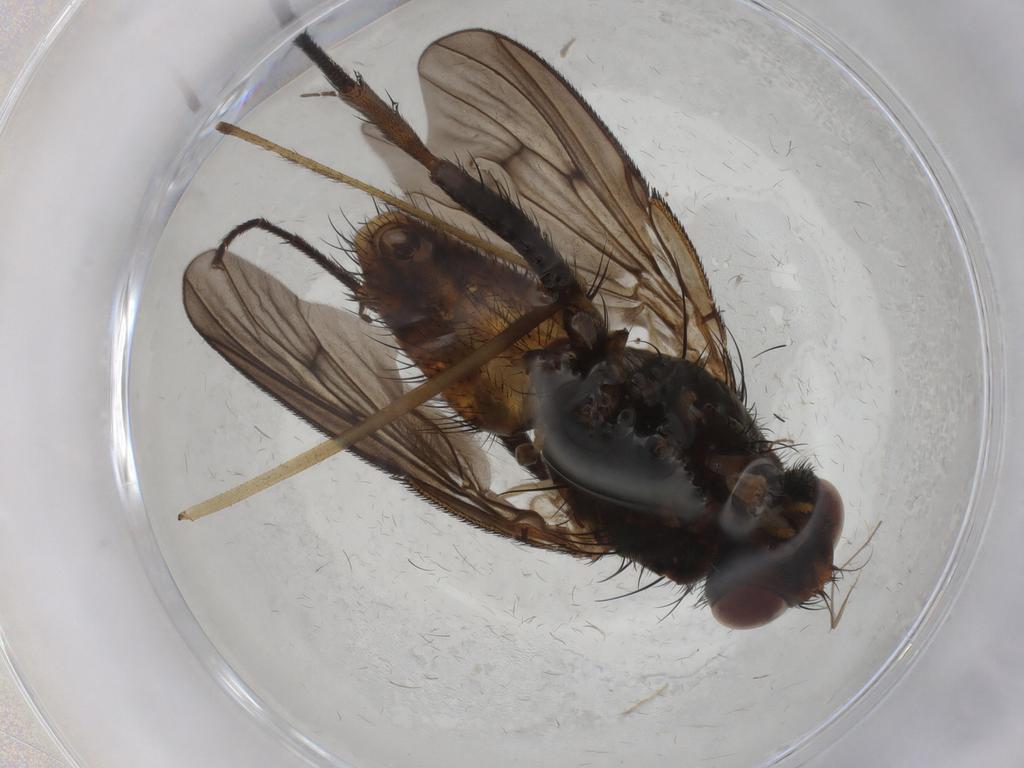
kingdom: Animalia
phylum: Arthropoda
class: Insecta
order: Diptera
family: Muscidae
